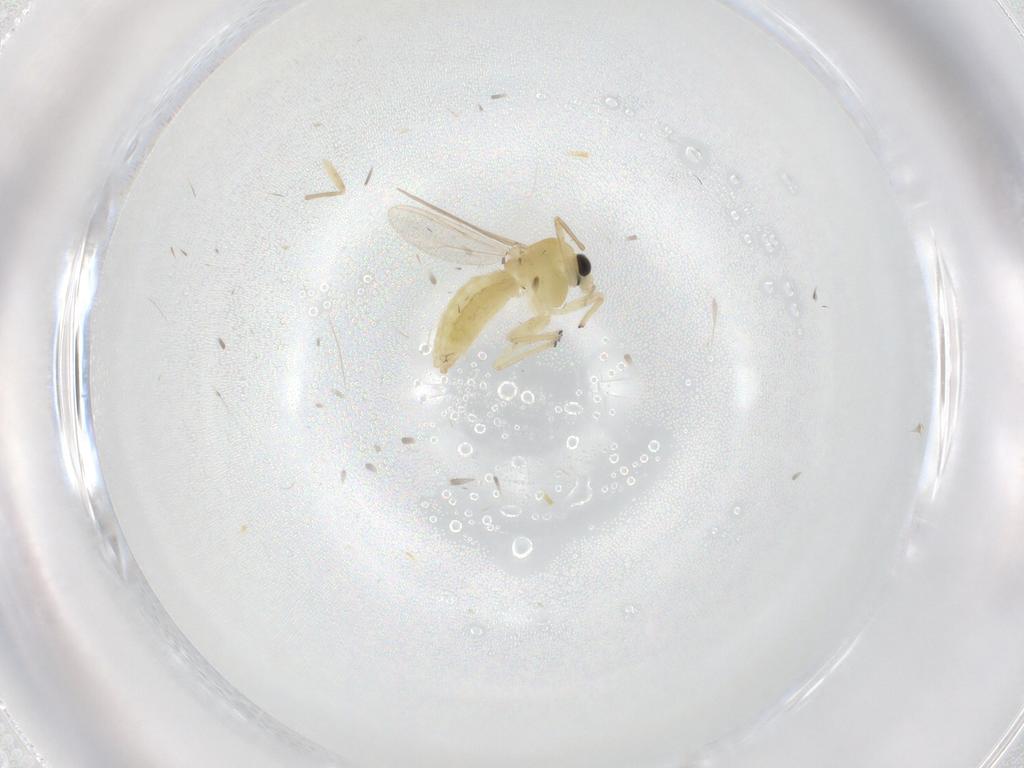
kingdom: Animalia
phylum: Arthropoda
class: Insecta
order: Diptera
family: Chironomidae
